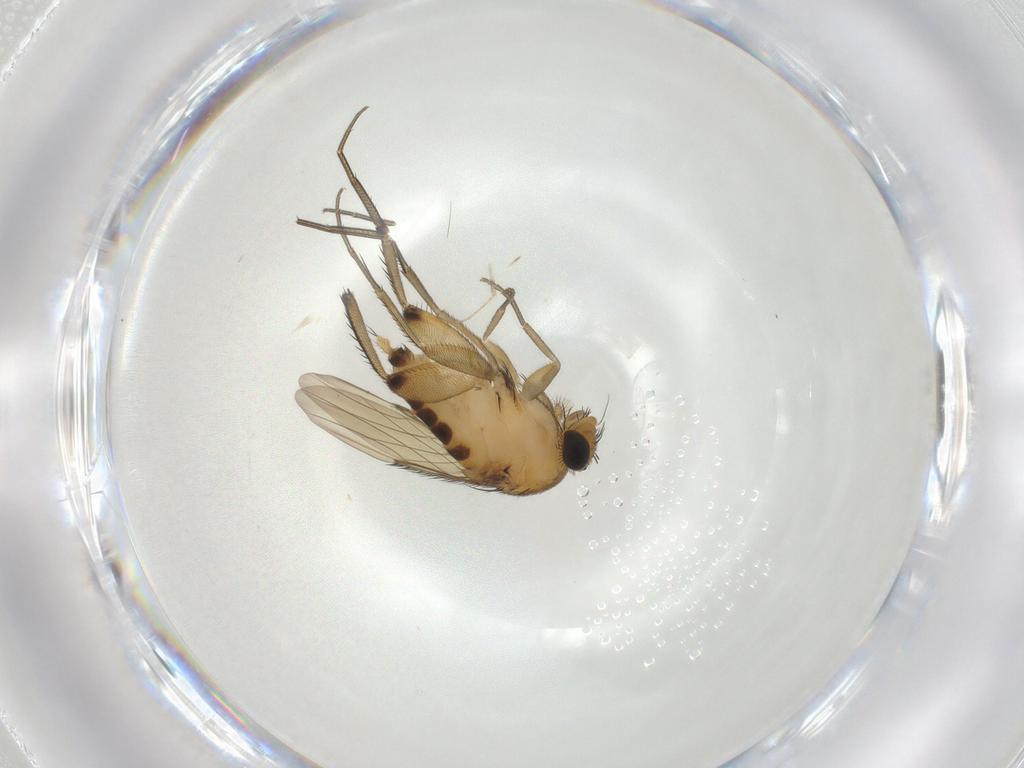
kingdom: Animalia
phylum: Arthropoda
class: Insecta
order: Diptera
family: Phoridae
